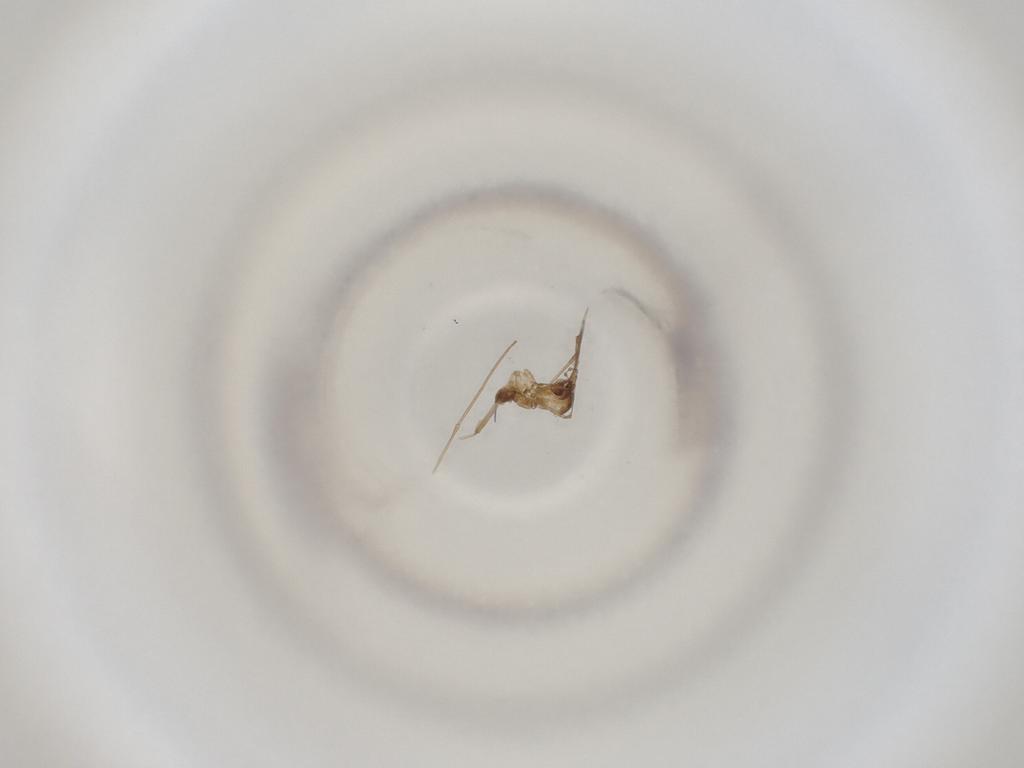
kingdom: Animalia
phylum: Arthropoda
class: Insecta
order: Diptera
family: Cecidomyiidae
